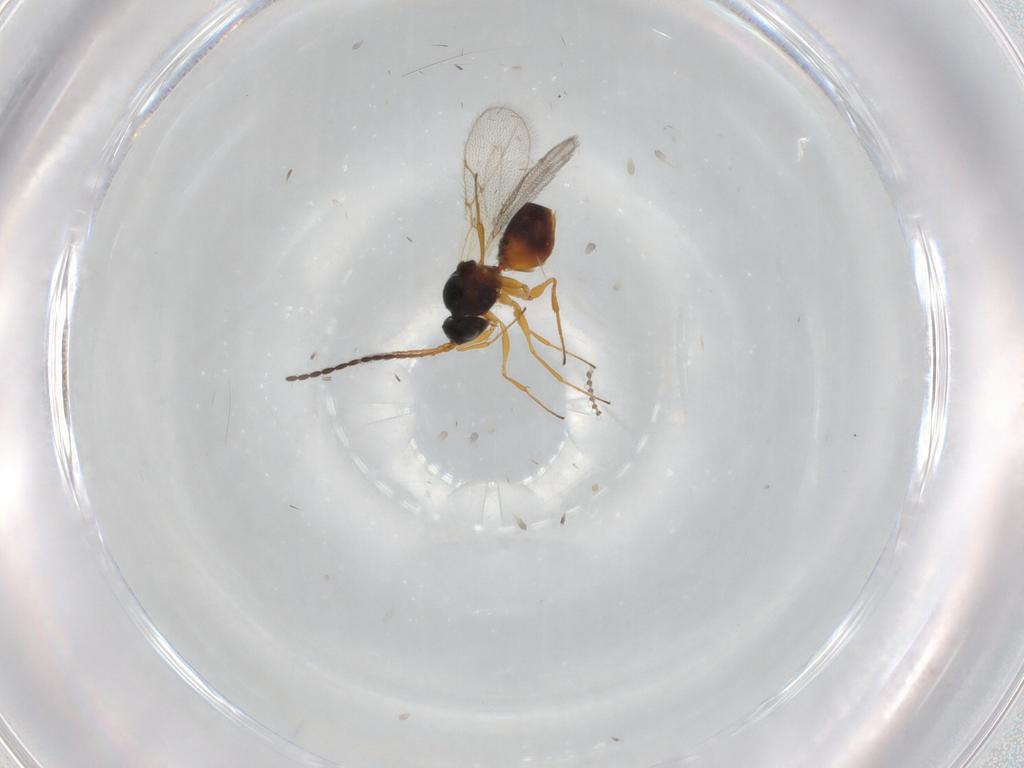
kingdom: Animalia
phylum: Arthropoda
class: Insecta
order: Hymenoptera
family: Figitidae
